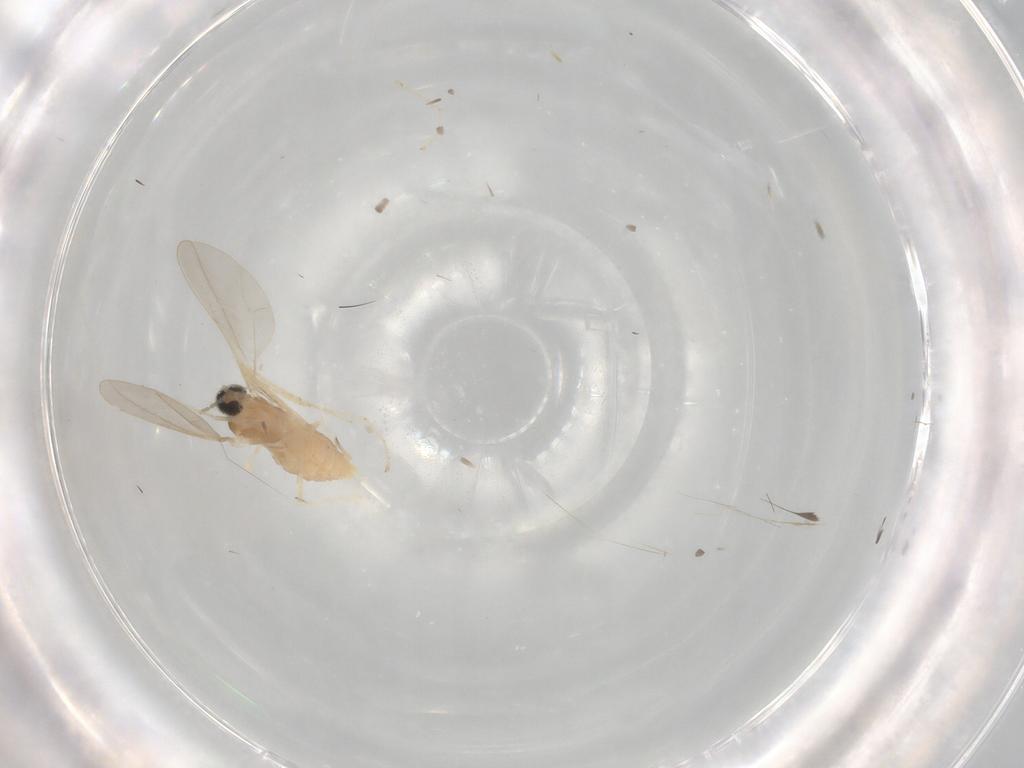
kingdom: Animalia
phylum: Arthropoda
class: Insecta
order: Diptera
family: Cecidomyiidae
